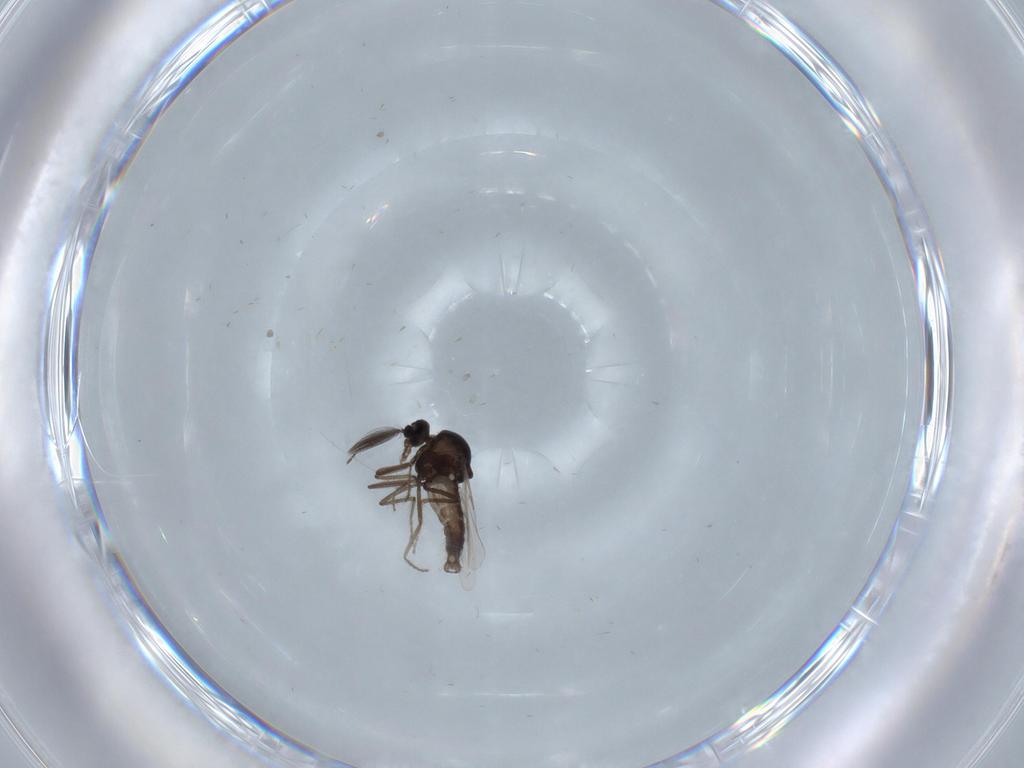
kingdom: Animalia
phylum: Arthropoda
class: Insecta
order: Diptera
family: Ceratopogonidae
